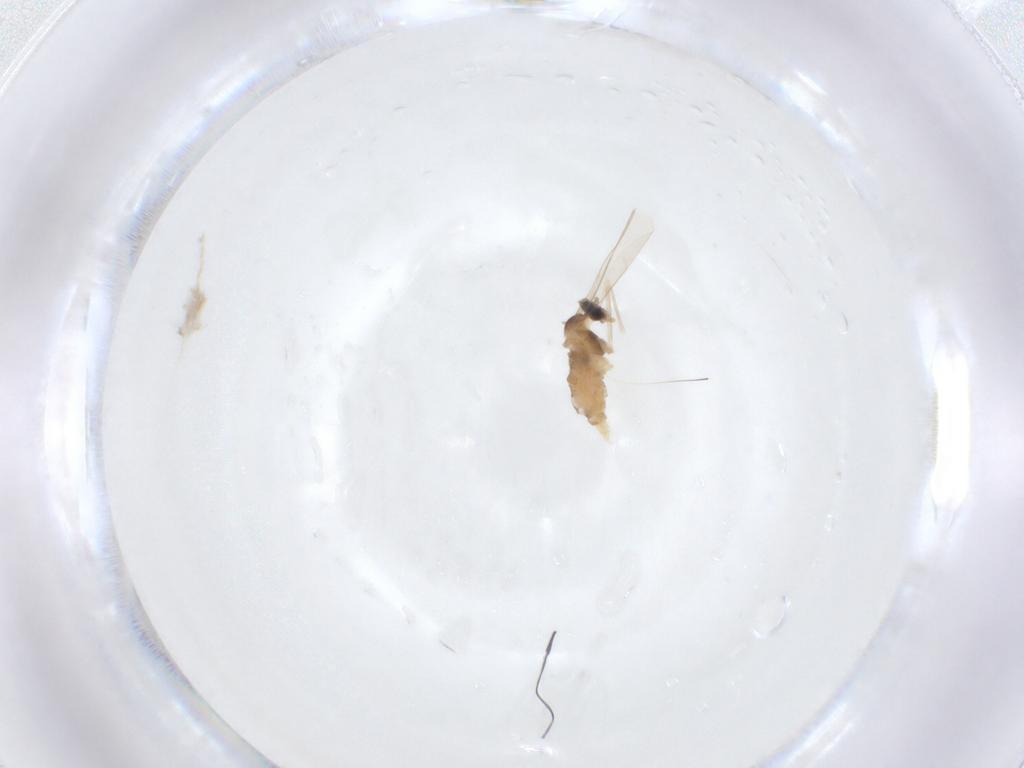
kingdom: Animalia
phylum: Arthropoda
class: Insecta
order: Diptera
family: Cecidomyiidae
